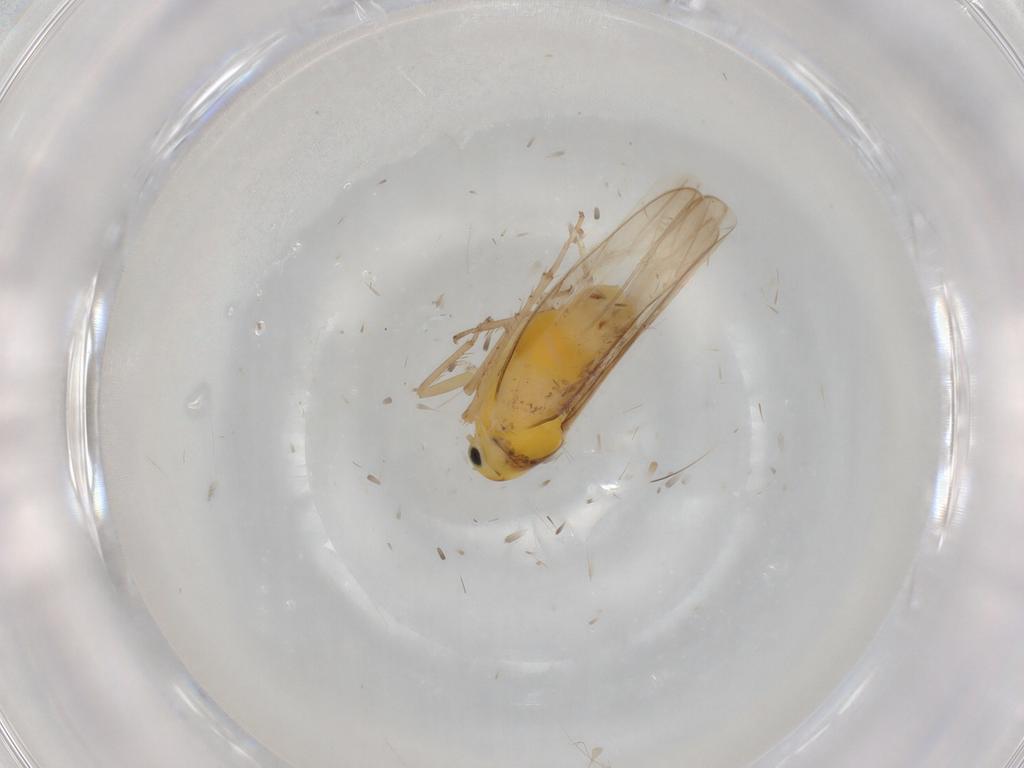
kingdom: Animalia
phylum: Arthropoda
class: Insecta
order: Hemiptera
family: Cicadellidae
